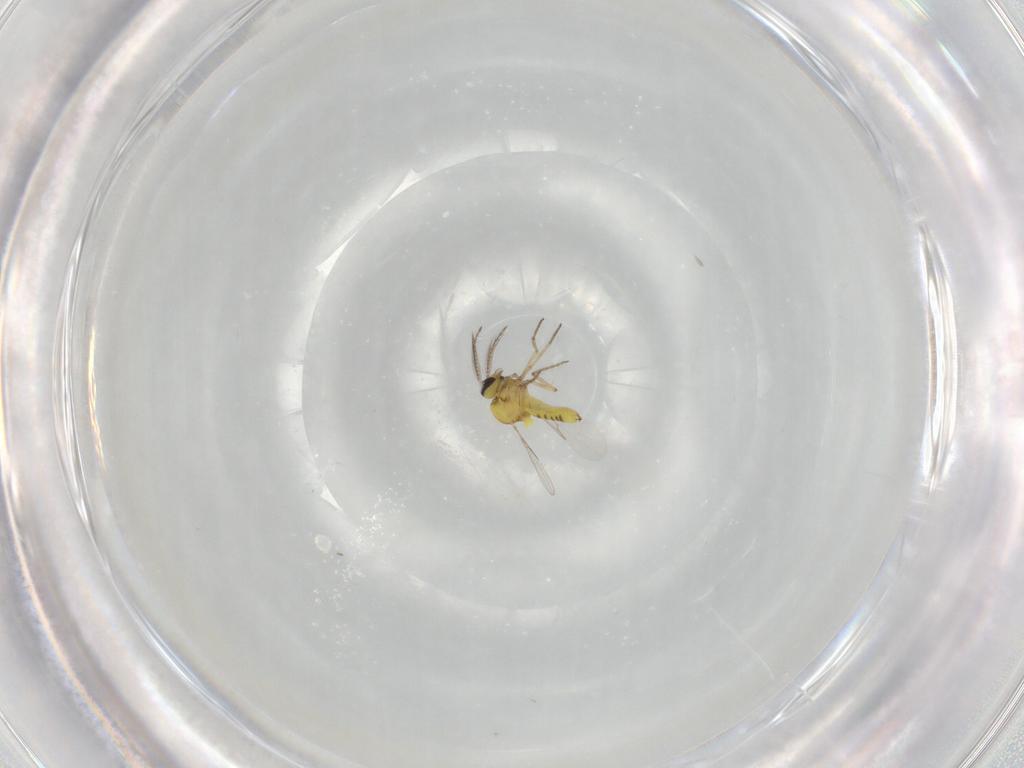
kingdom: Animalia
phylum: Arthropoda
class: Insecta
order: Diptera
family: Ceratopogonidae
